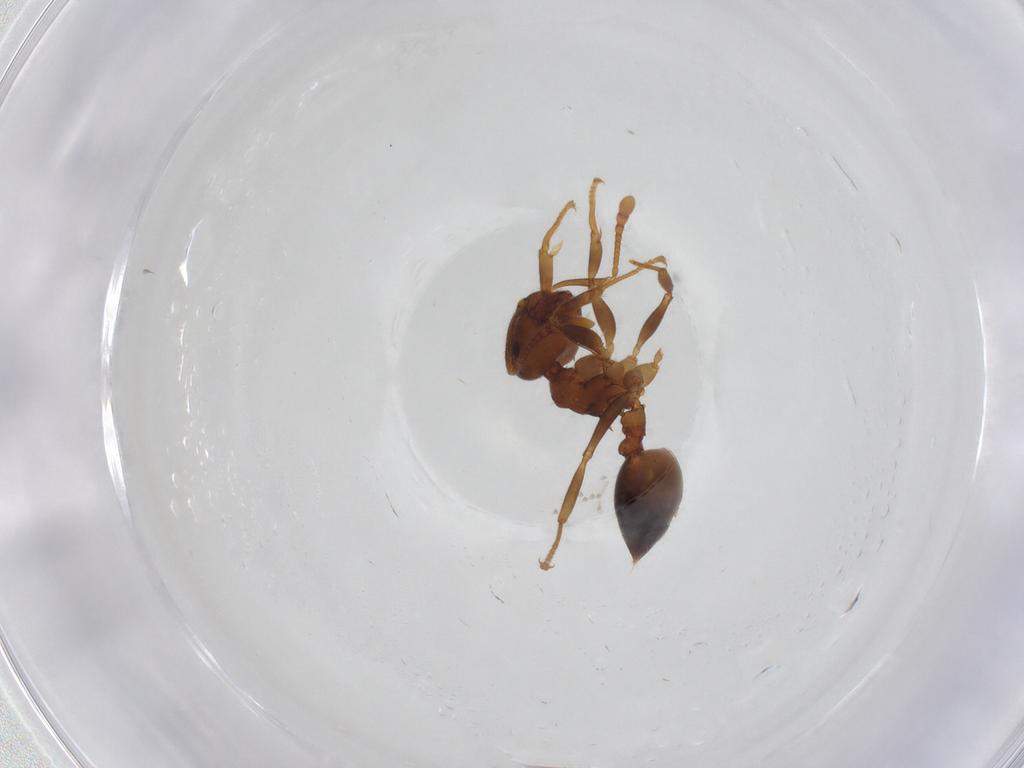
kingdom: Animalia
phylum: Arthropoda
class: Insecta
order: Hymenoptera
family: Formicidae
